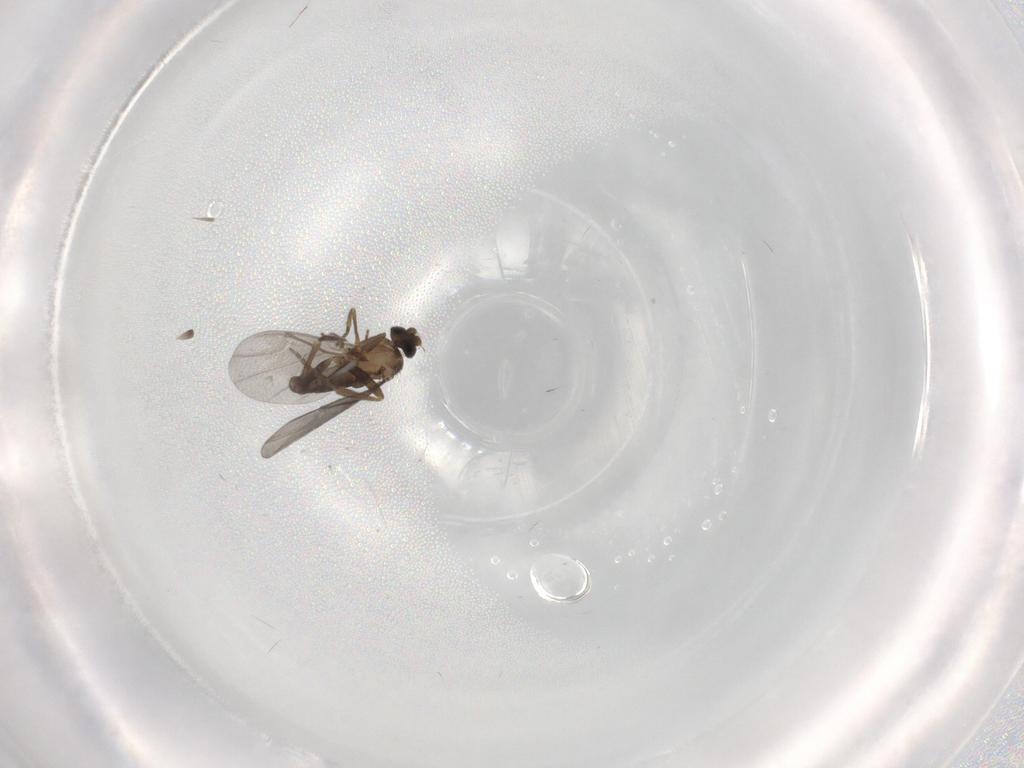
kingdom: Animalia
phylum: Arthropoda
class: Insecta
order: Diptera
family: Phoridae
